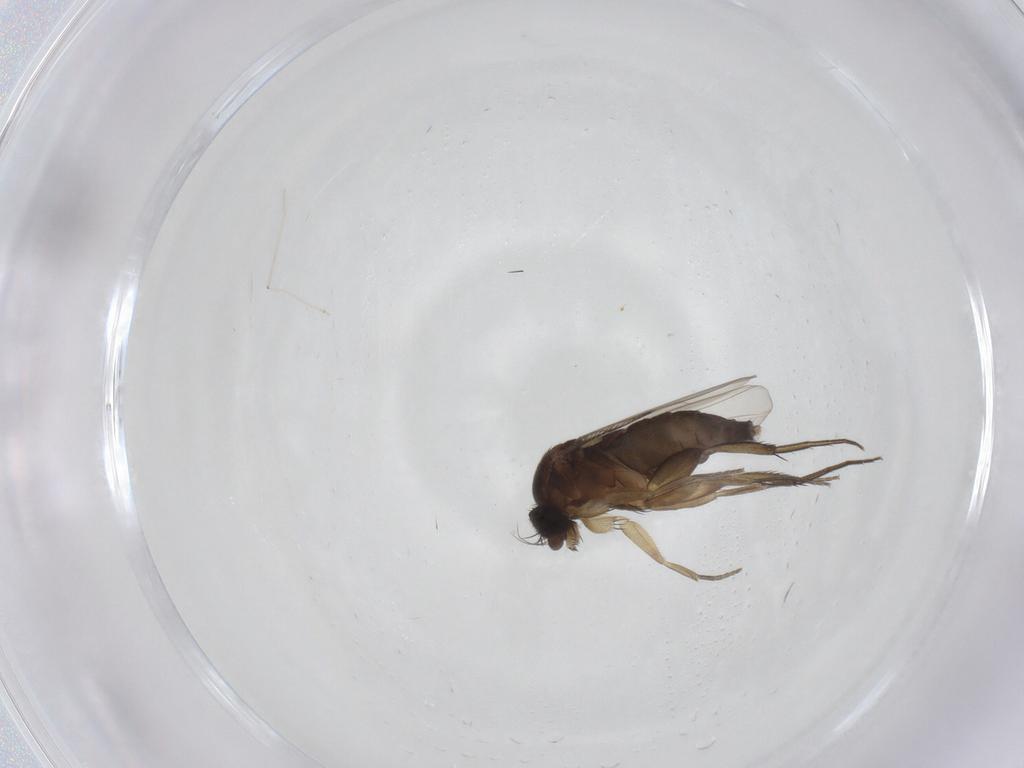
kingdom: Animalia
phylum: Arthropoda
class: Insecta
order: Diptera
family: Phoridae
